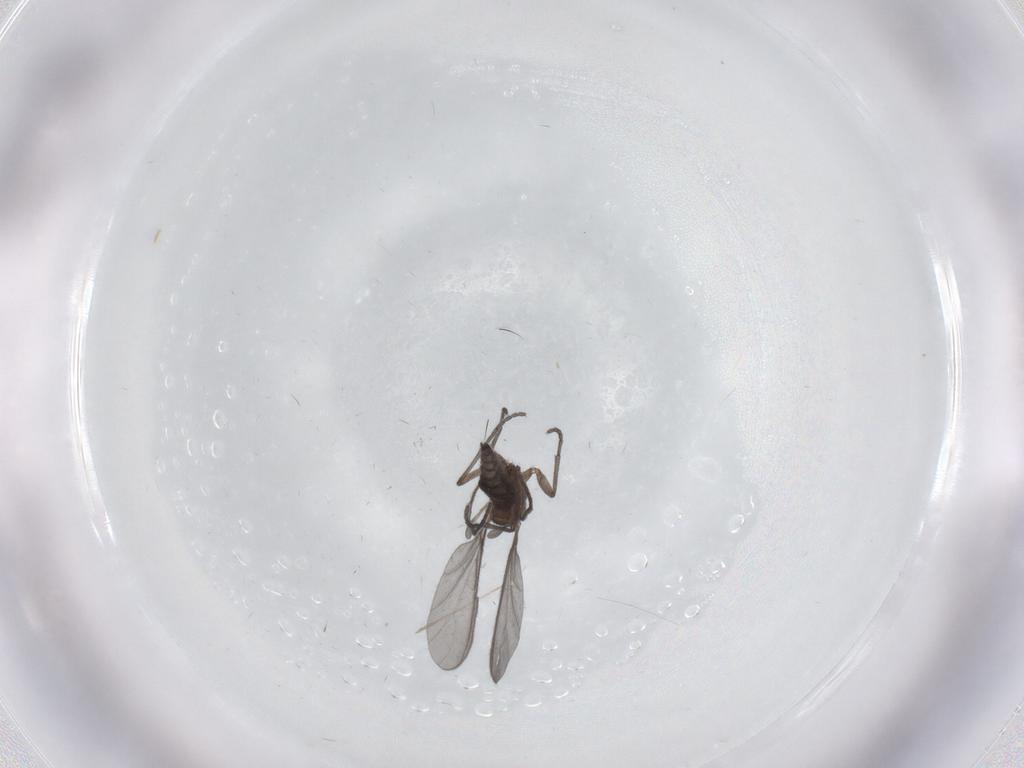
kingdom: Animalia
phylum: Arthropoda
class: Insecta
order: Diptera
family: Sciaridae
